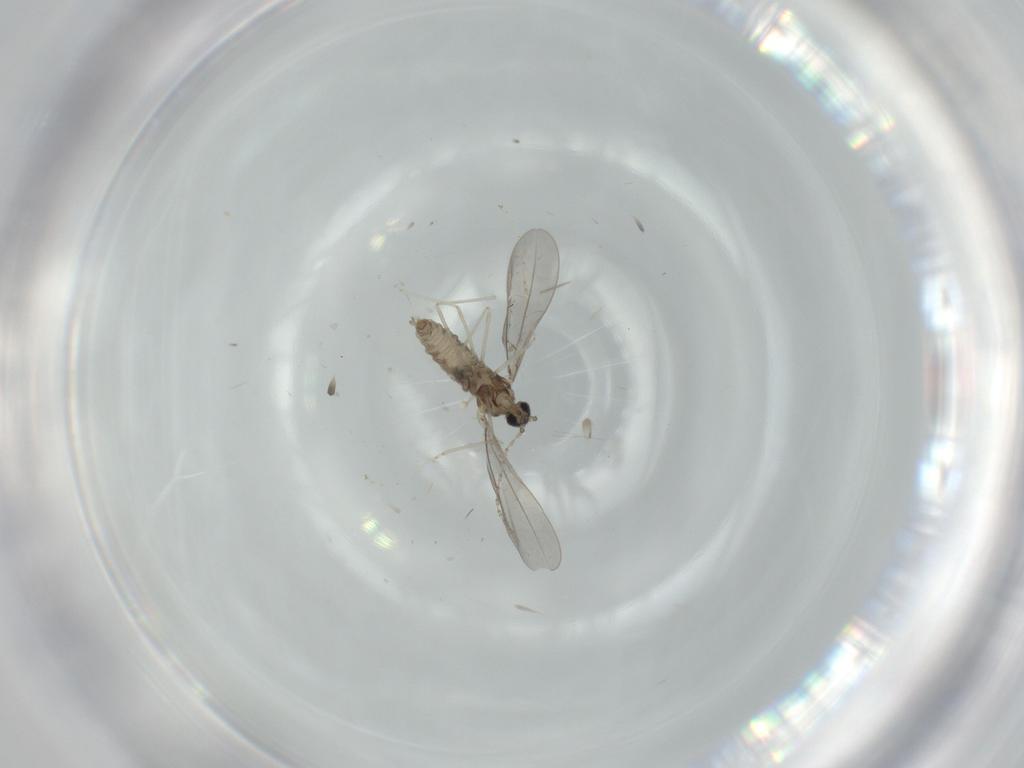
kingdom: Animalia
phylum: Arthropoda
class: Insecta
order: Diptera
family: Cecidomyiidae
